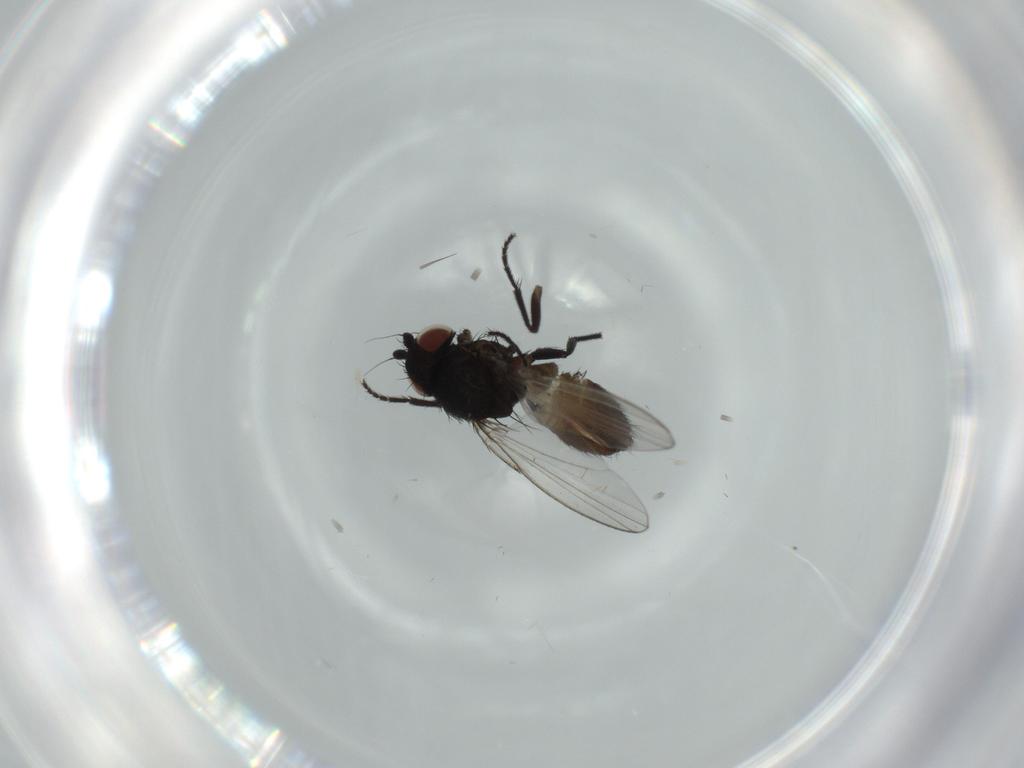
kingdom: Animalia
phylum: Arthropoda
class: Insecta
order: Diptera
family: Milichiidae
